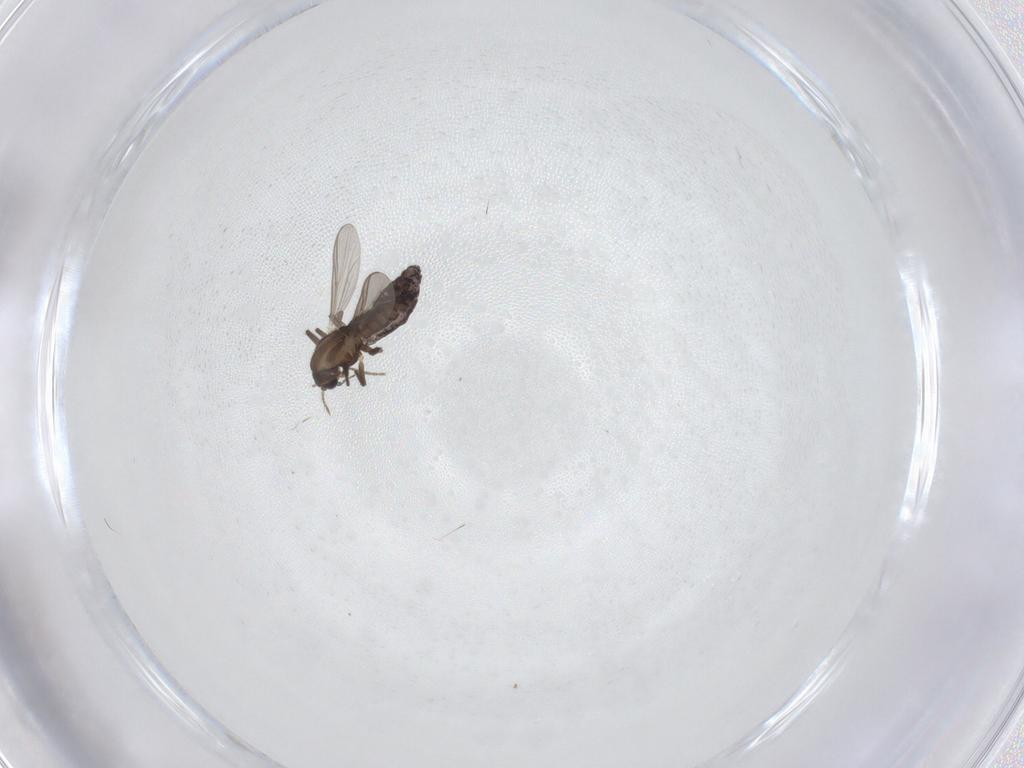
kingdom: Animalia
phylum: Arthropoda
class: Insecta
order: Diptera
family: Chironomidae
